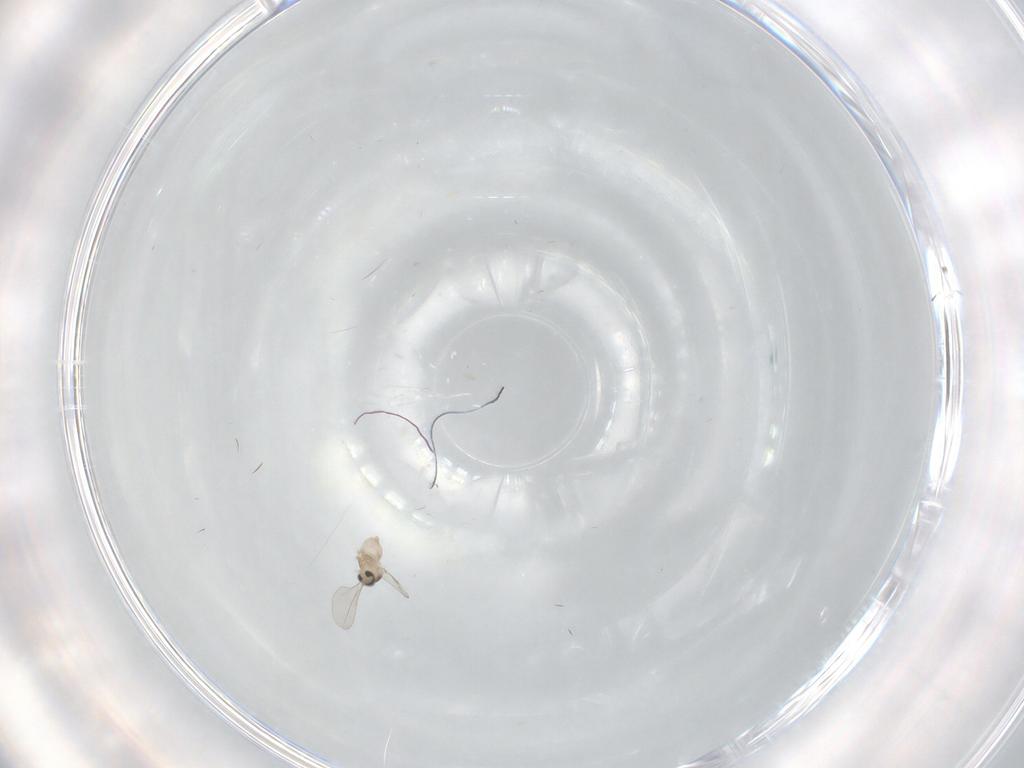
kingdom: Animalia
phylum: Arthropoda
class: Insecta
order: Diptera
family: Cecidomyiidae
